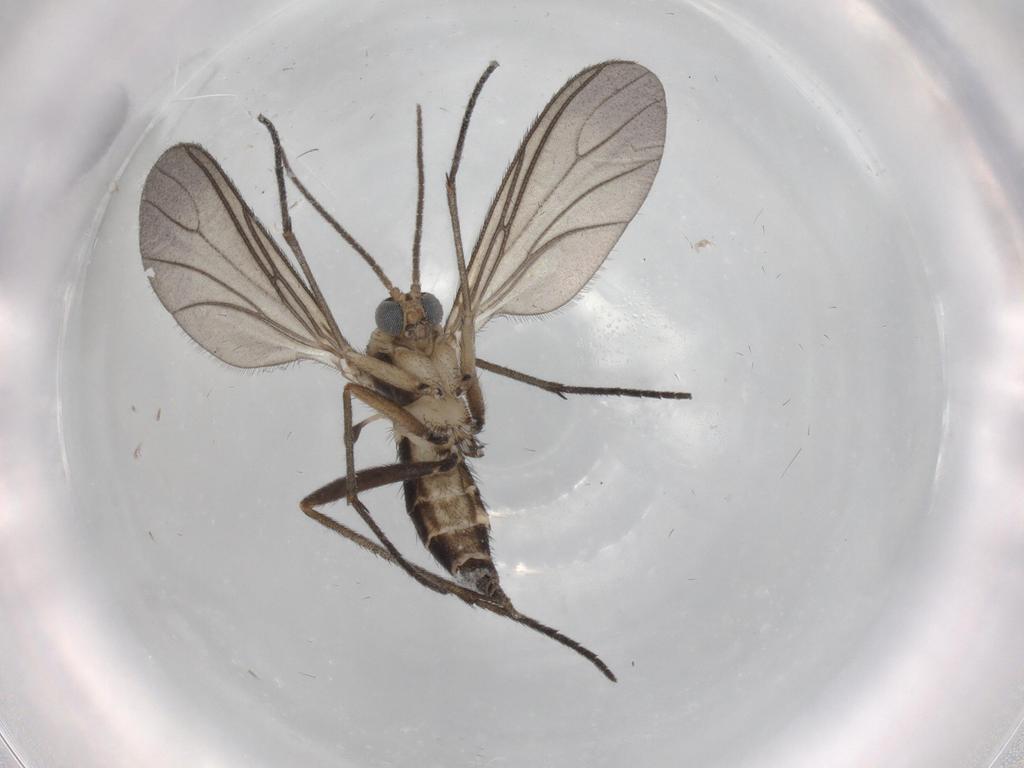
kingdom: Animalia
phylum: Arthropoda
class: Insecta
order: Diptera
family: Sciaridae
